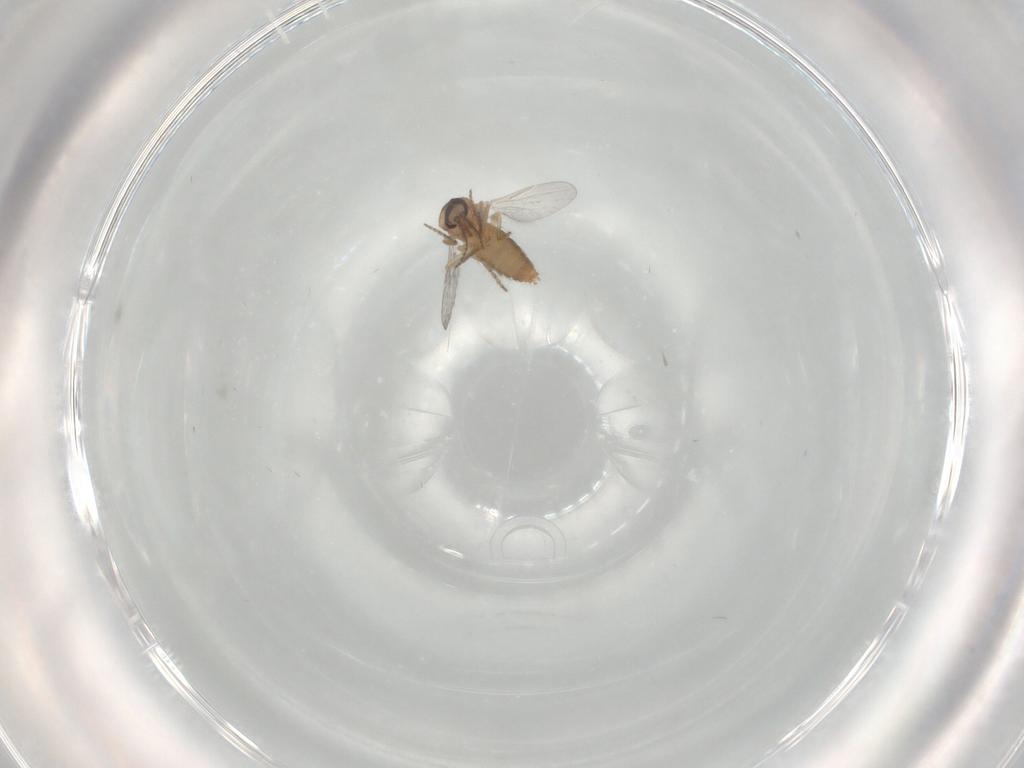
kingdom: Animalia
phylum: Arthropoda
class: Insecta
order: Diptera
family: Ceratopogonidae
